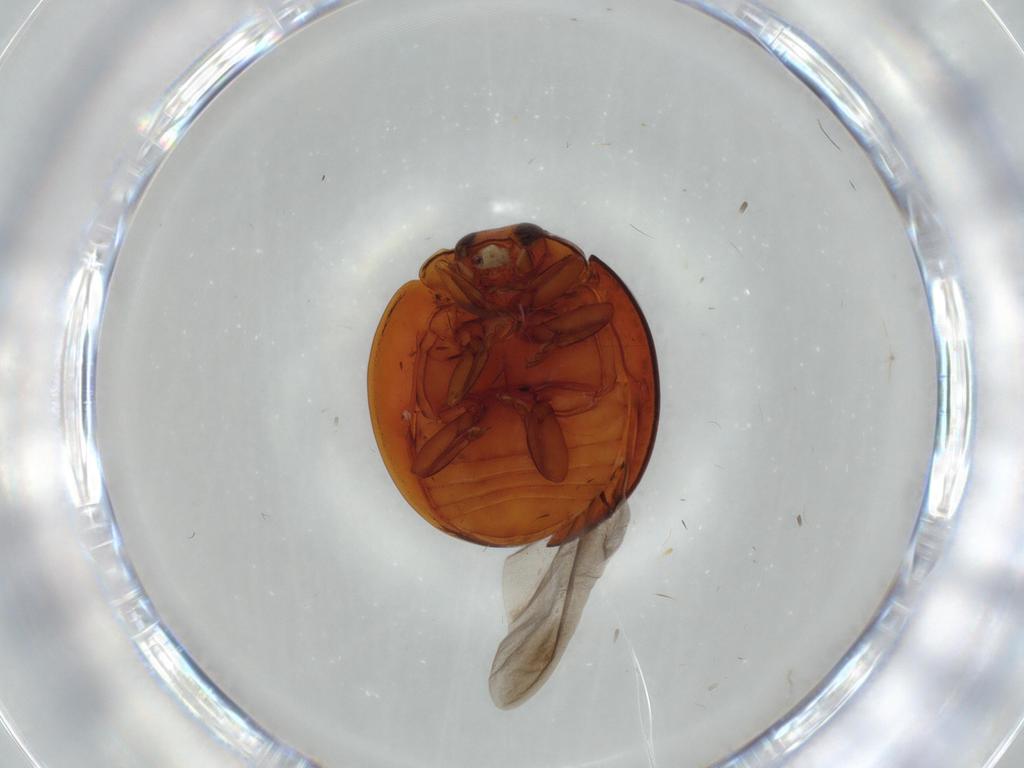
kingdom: Animalia
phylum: Arthropoda
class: Insecta
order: Coleoptera
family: Coccinellidae
